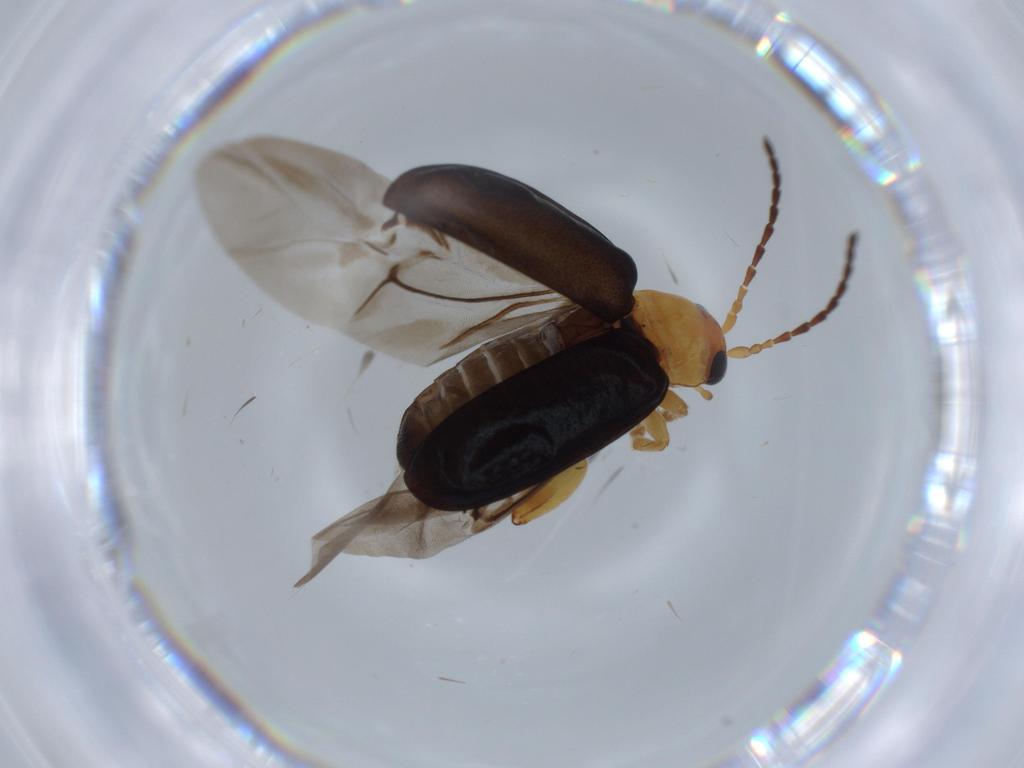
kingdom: Animalia
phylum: Arthropoda
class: Insecta
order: Coleoptera
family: Chrysomelidae
